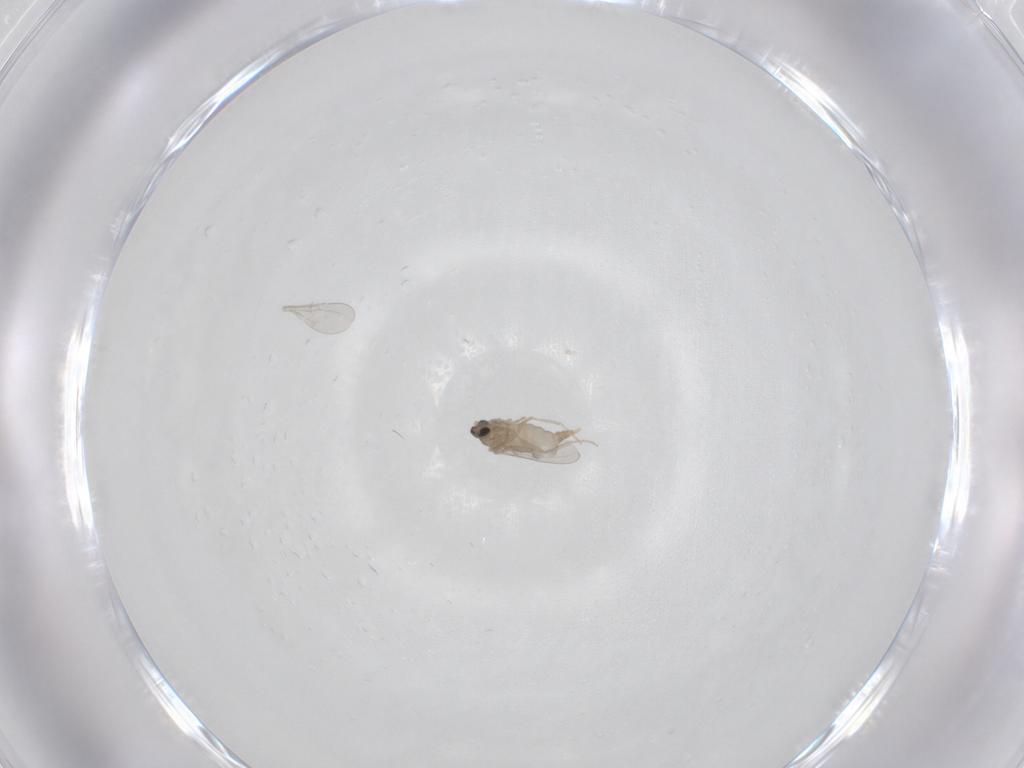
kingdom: Animalia
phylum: Arthropoda
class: Insecta
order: Diptera
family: Cecidomyiidae
